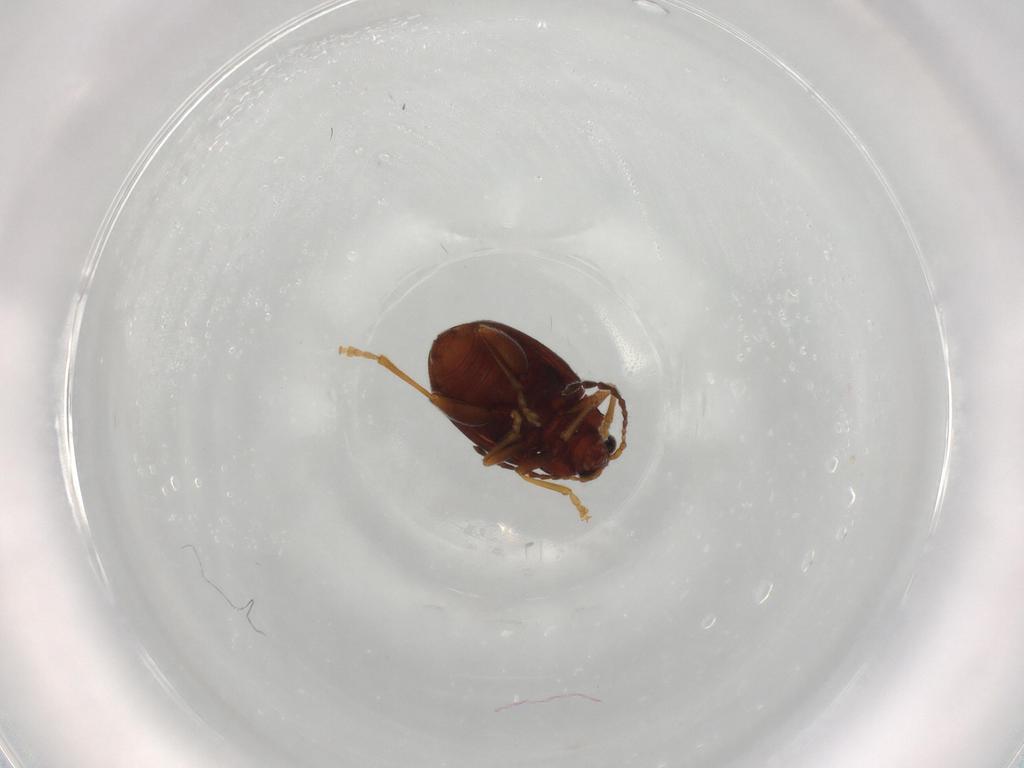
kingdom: Animalia
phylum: Arthropoda
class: Insecta
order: Coleoptera
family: Chrysomelidae
